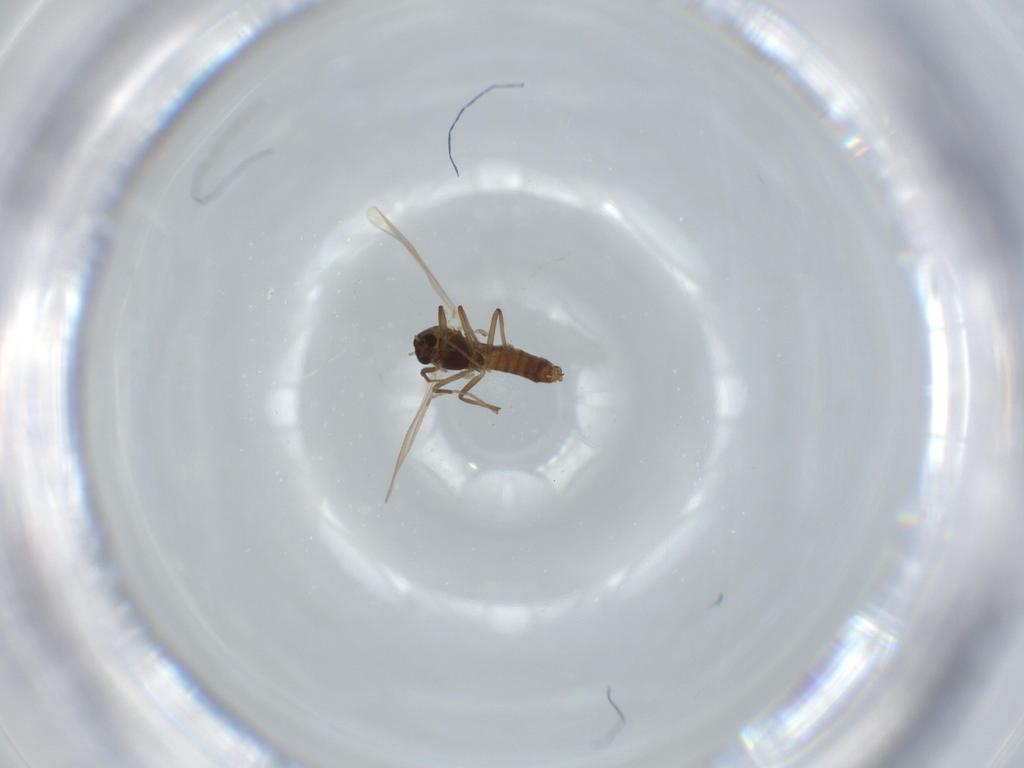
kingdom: Animalia
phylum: Arthropoda
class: Insecta
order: Diptera
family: Chironomidae
